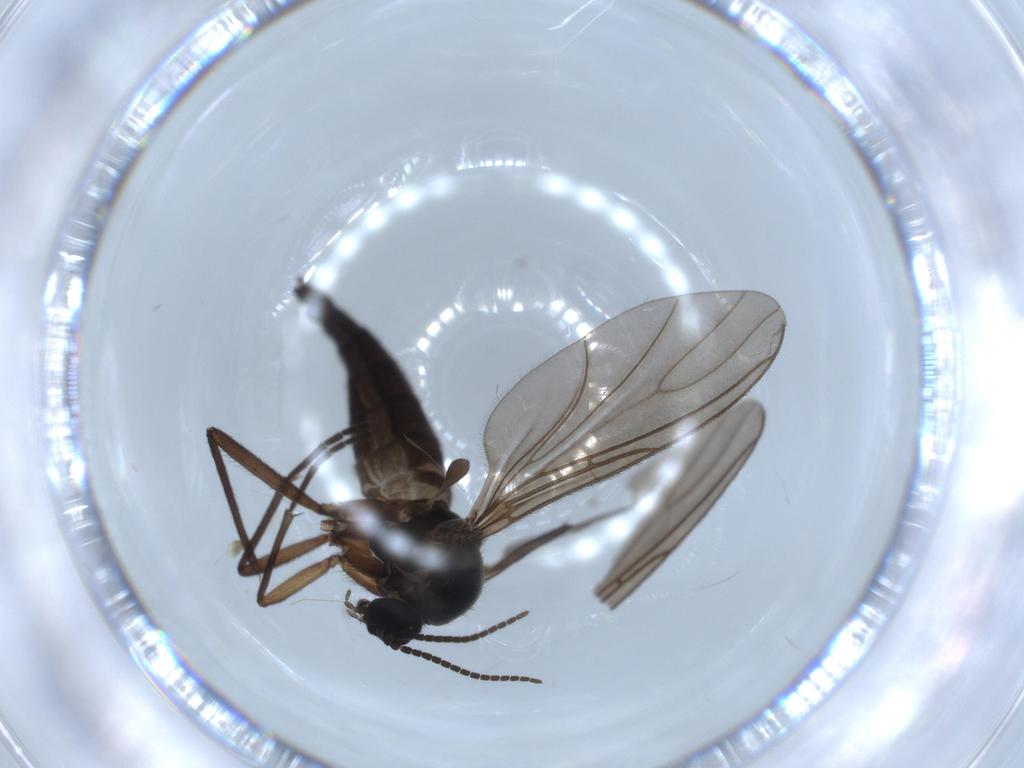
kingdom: Animalia
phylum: Arthropoda
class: Insecta
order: Diptera
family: Sciaridae
